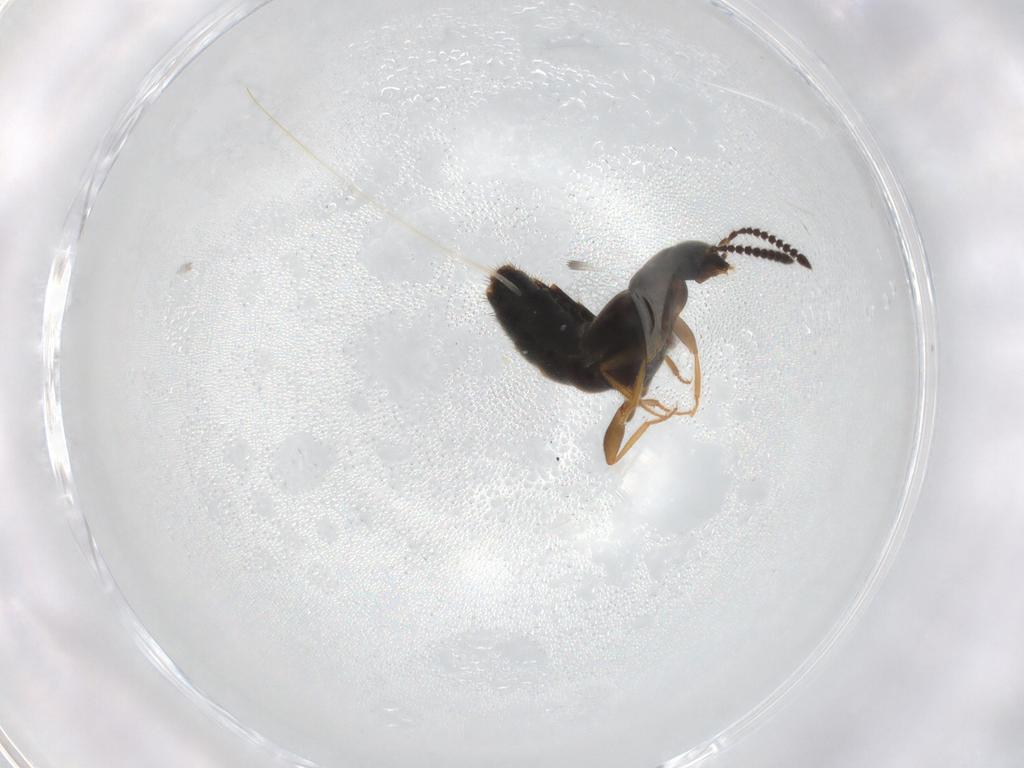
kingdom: Animalia
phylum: Arthropoda
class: Insecta
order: Coleoptera
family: Staphylinidae
